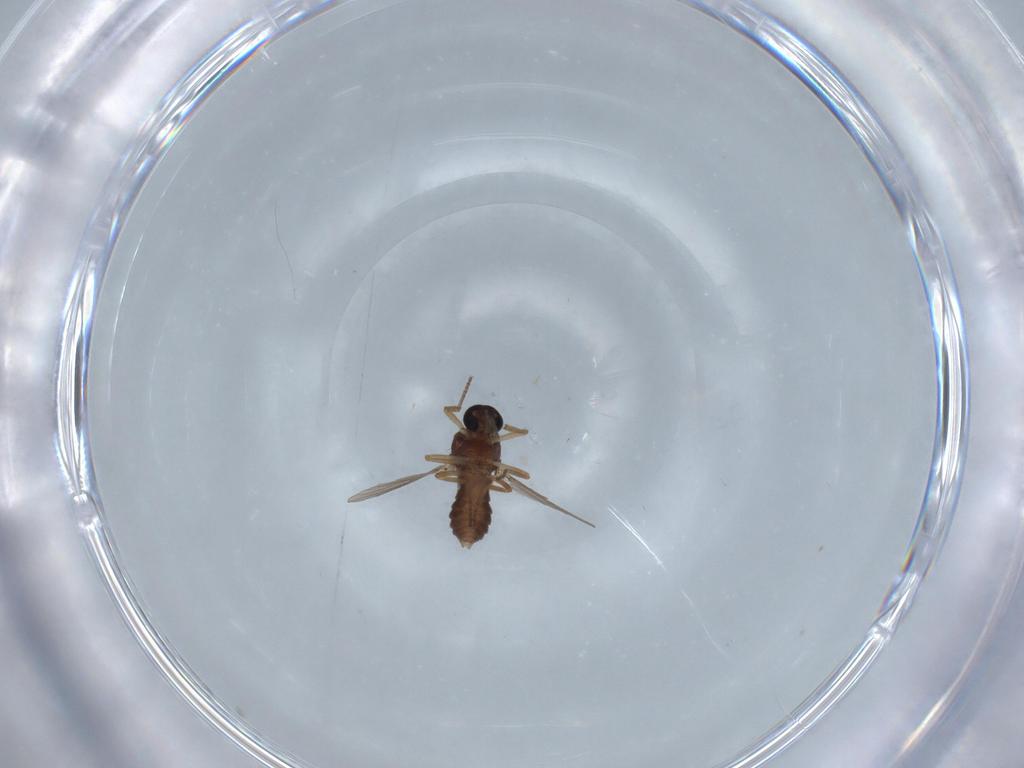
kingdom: Animalia
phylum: Arthropoda
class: Insecta
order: Diptera
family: Ceratopogonidae
